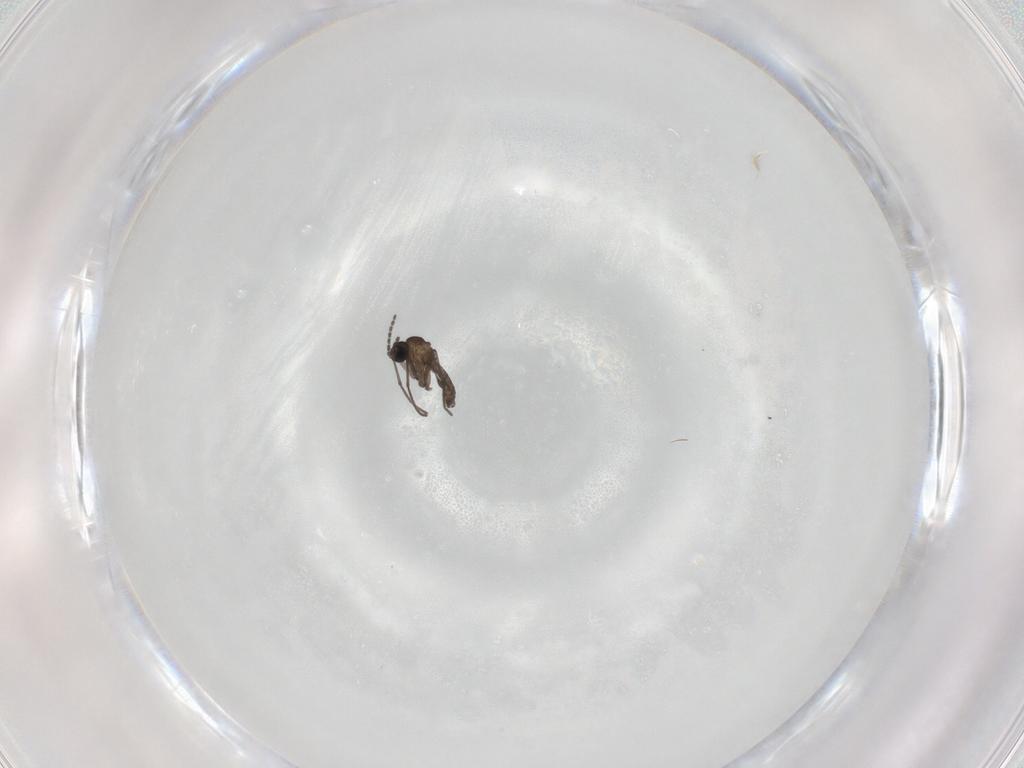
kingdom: Animalia
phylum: Arthropoda
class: Insecta
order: Diptera
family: Sciaridae
